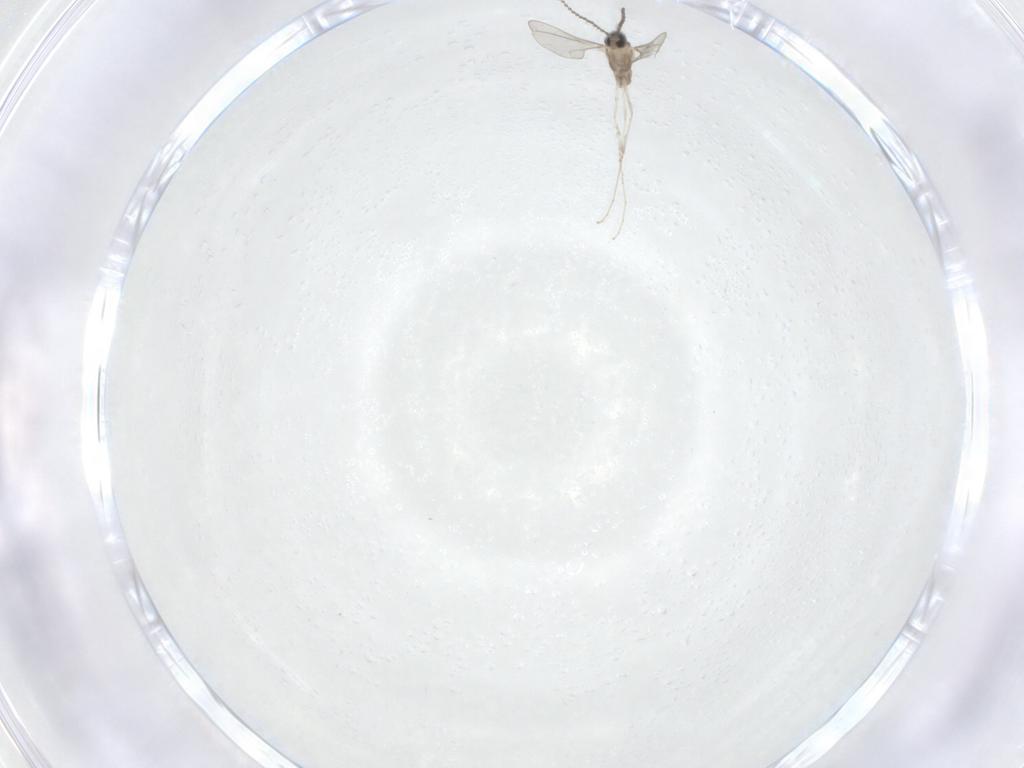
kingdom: Animalia
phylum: Arthropoda
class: Insecta
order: Diptera
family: Cecidomyiidae
